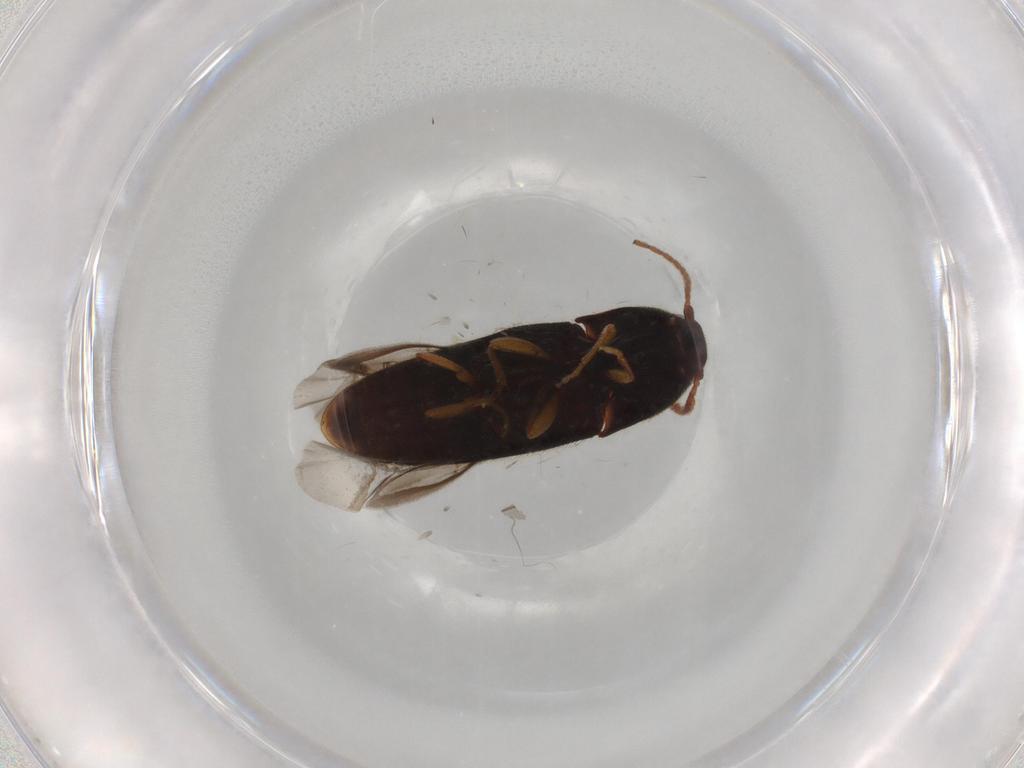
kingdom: Animalia
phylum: Arthropoda
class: Insecta
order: Coleoptera
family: Elateridae
